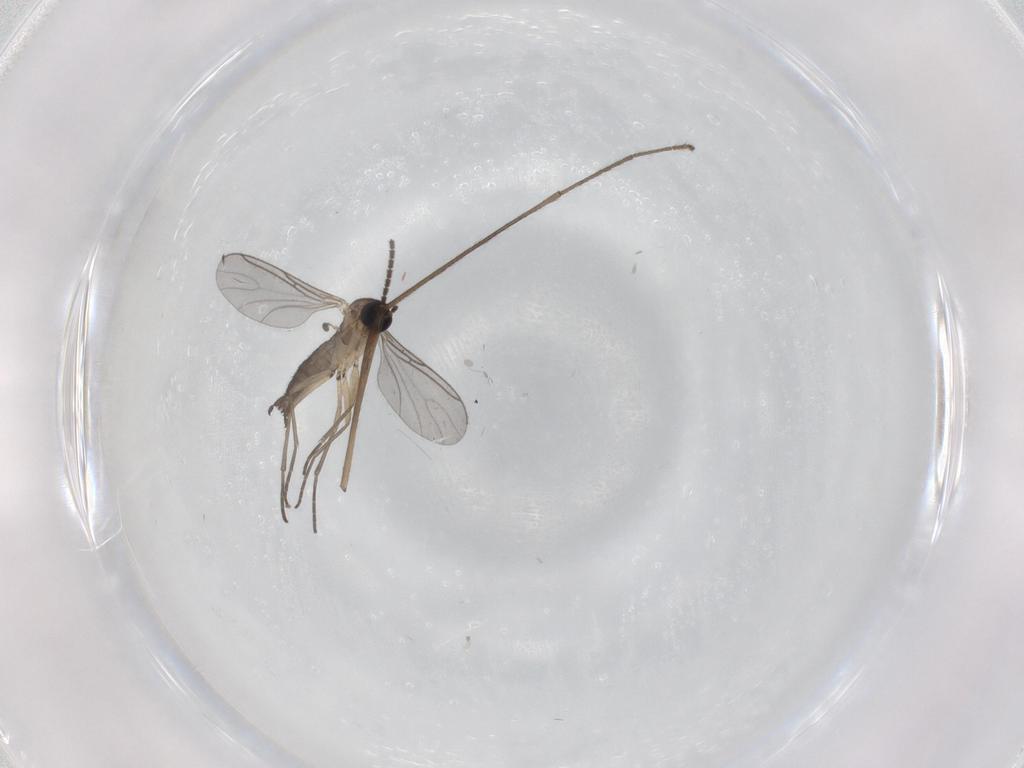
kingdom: Animalia
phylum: Arthropoda
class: Insecta
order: Diptera
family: Sciaridae
